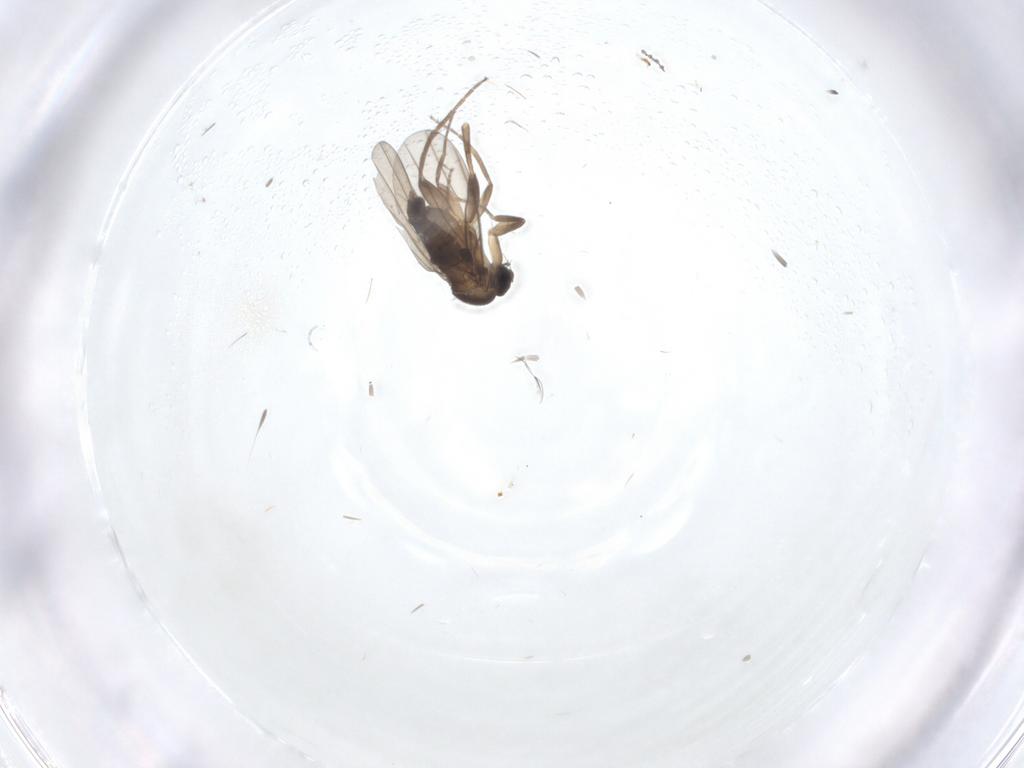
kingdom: Animalia
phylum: Arthropoda
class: Insecta
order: Diptera
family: Phoridae
